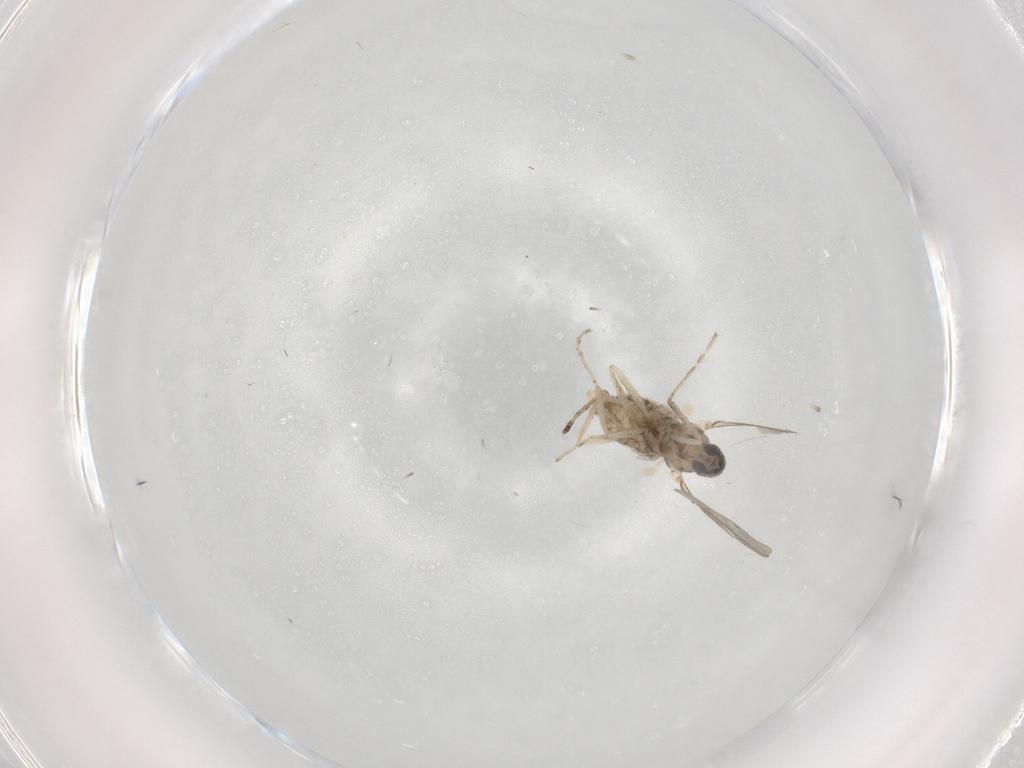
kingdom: Animalia
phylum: Arthropoda
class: Insecta
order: Diptera
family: Cecidomyiidae
